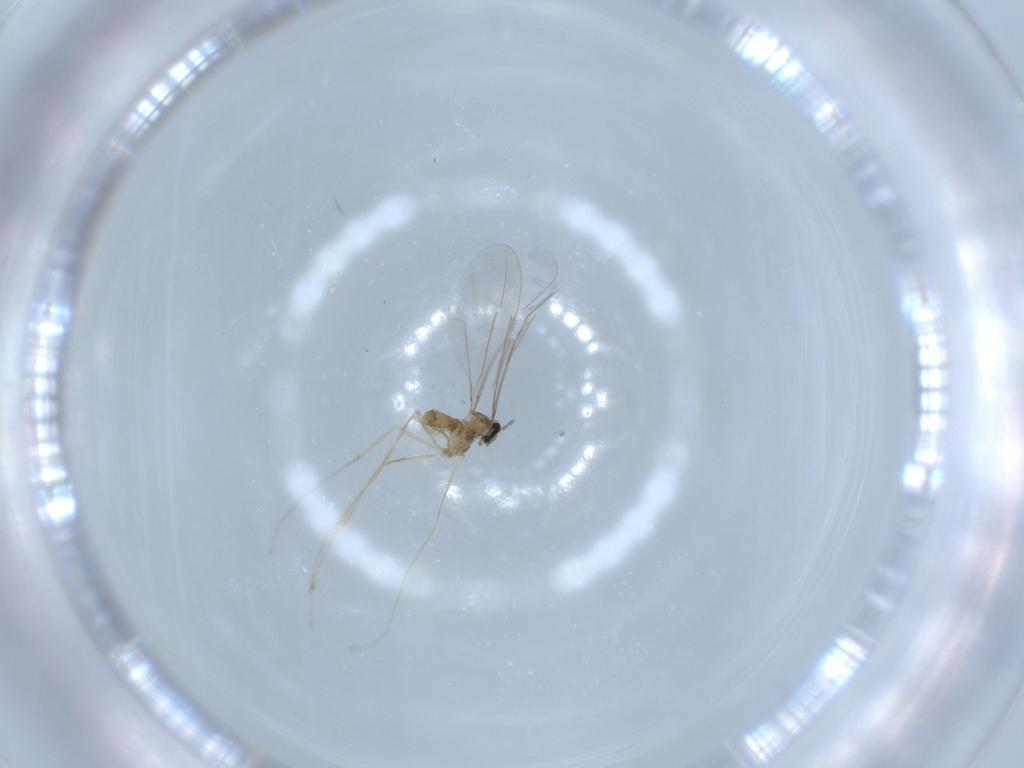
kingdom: Animalia
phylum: Arthropoda
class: Insecta
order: Diptera
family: Cecidomyiidae
